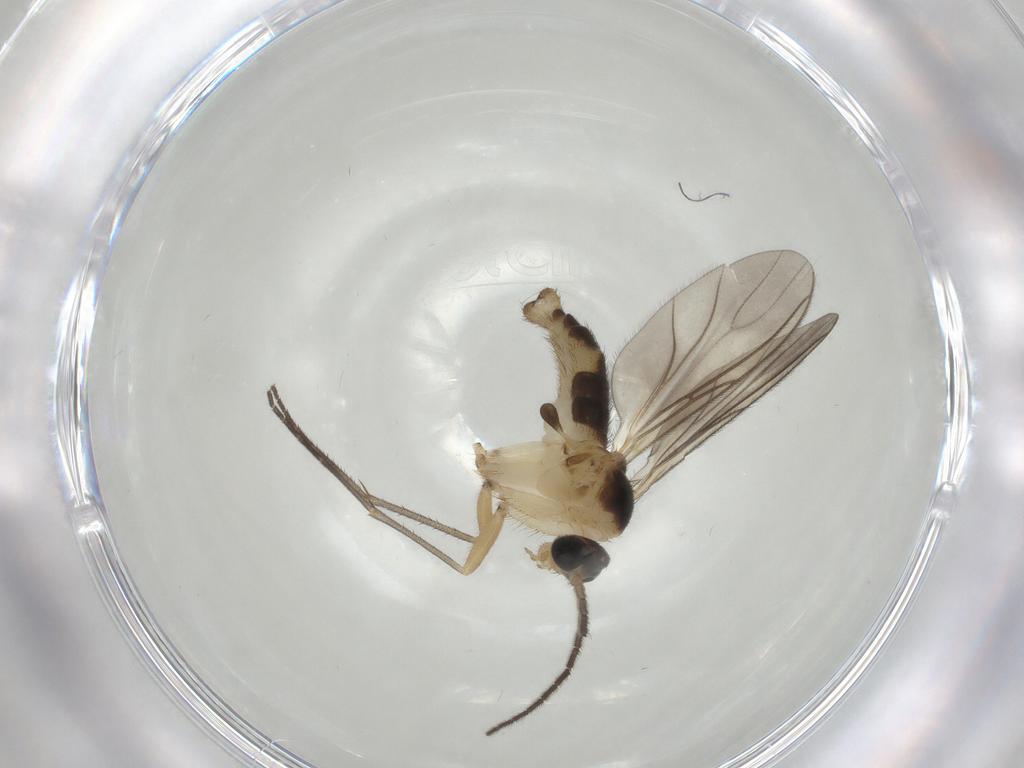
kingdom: Animalia
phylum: Arthropoda
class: Insecta
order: Diptera
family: Sciaridae
